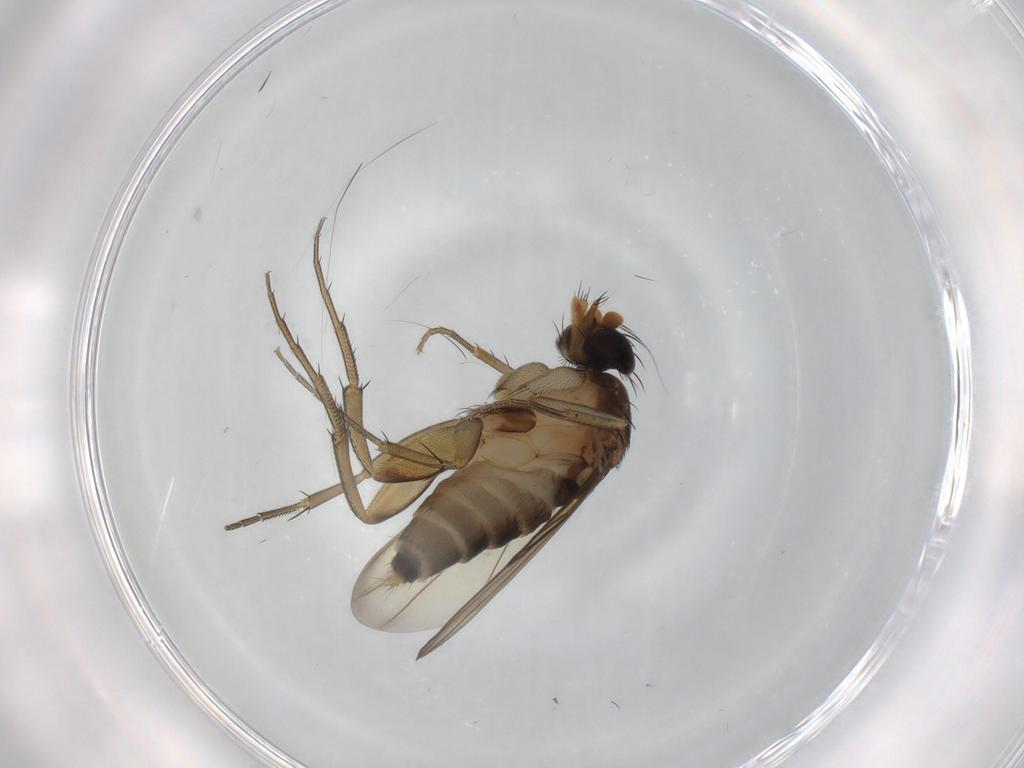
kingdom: Animalia
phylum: Arthropoda
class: Insecta
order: Diptera
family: Phoridae
